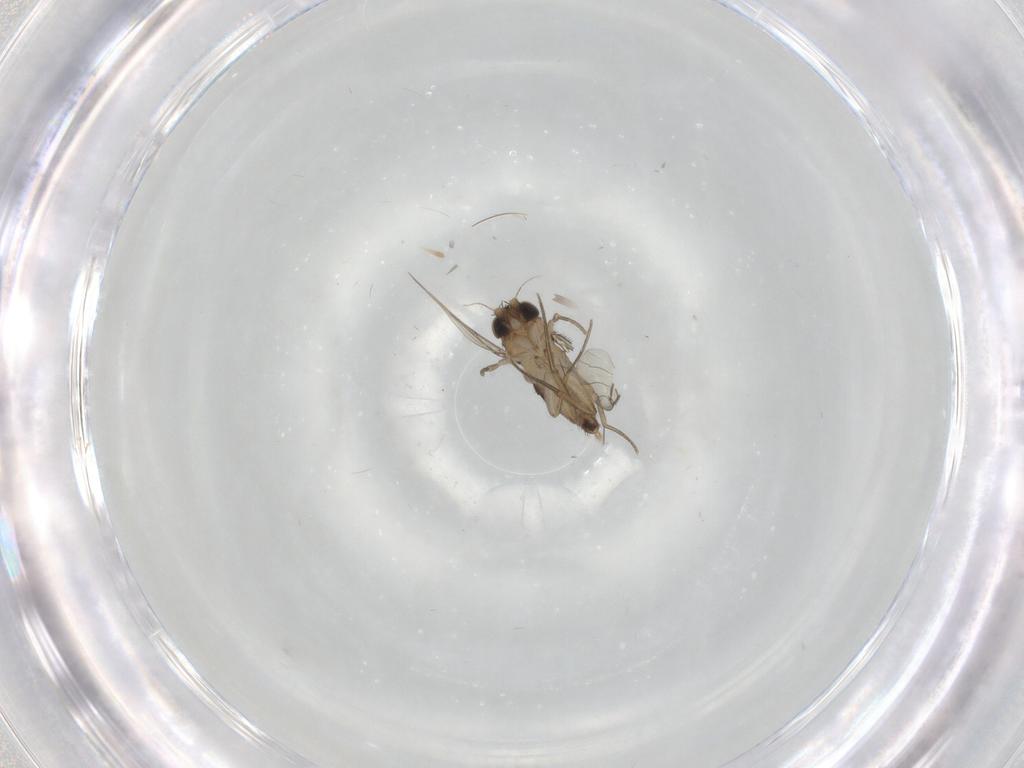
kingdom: Animalia
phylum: Arthropoda
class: Insecta
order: Diptera
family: Phoridae
